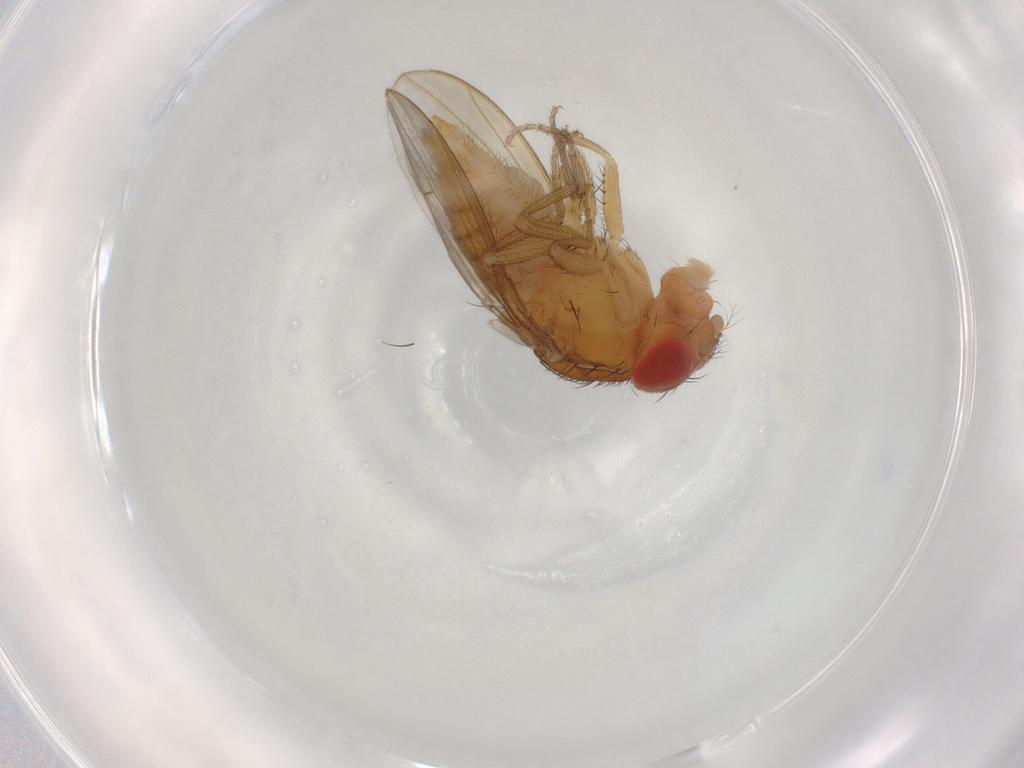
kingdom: Animalia
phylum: Arthropoda
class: Insecta
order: Diptera
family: Drosophilidae
